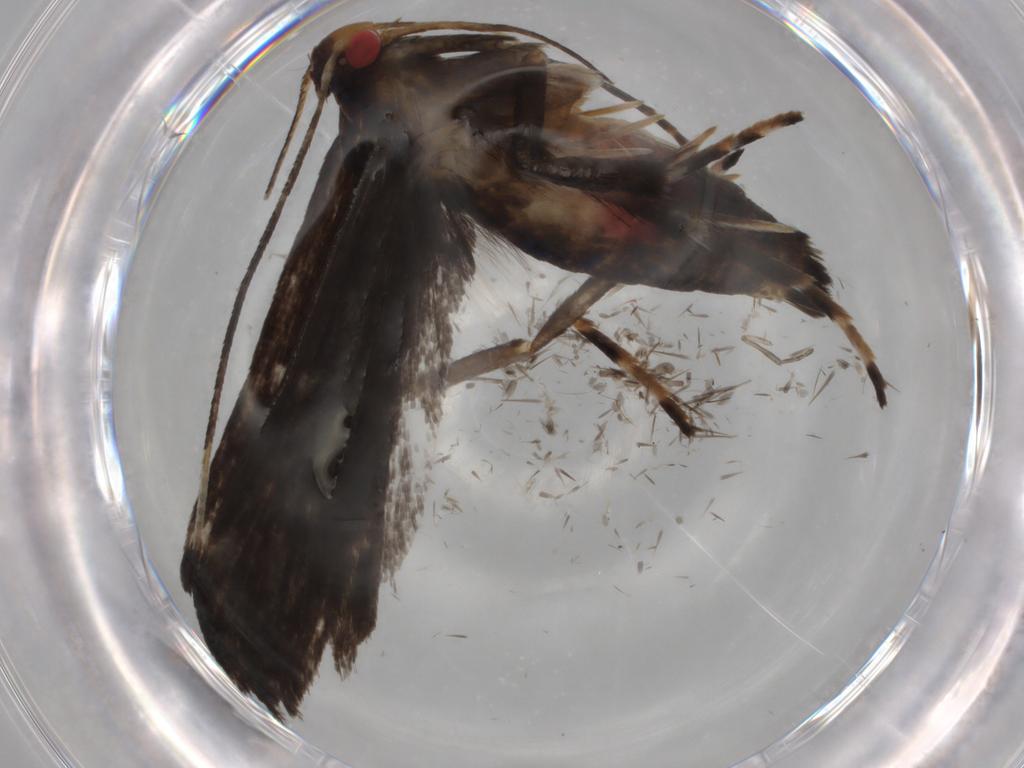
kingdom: Animalia
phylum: Arthropoda
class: Insecta
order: Lepidoptera
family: Gelechiidae
